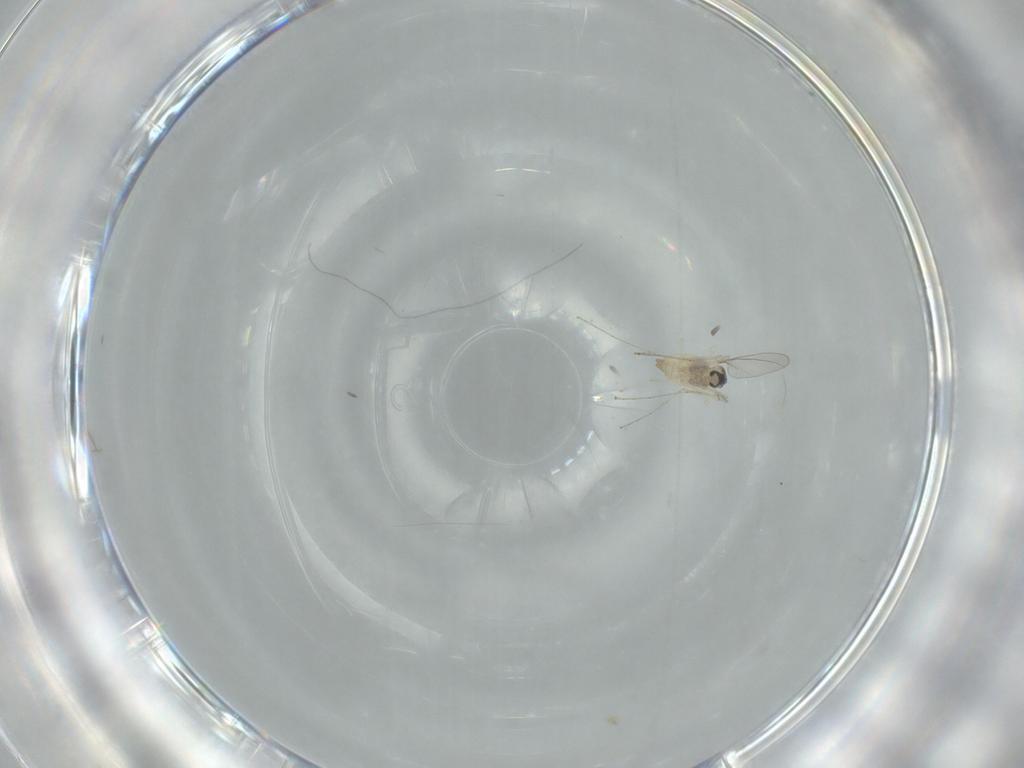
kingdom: Animalia
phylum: Arthropoda
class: Insecta
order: Diptera
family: Cecidomyiidae
